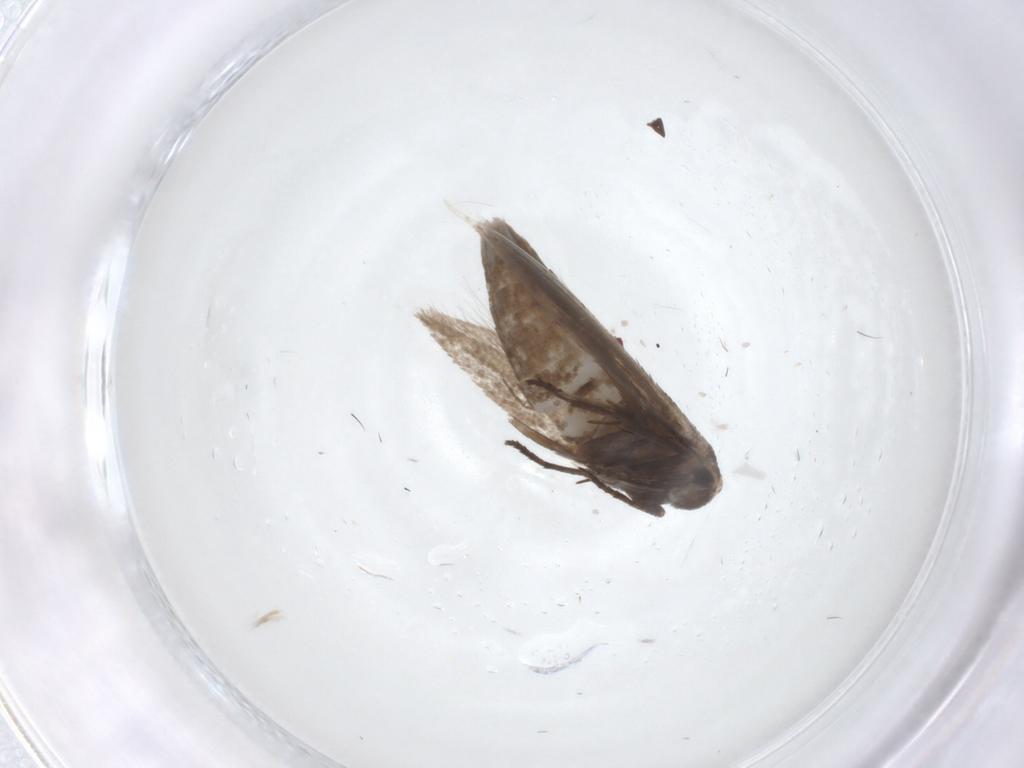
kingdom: Animalia
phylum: Arthropoda
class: Insecta
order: Lepidoptera
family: Bucculatricidae
